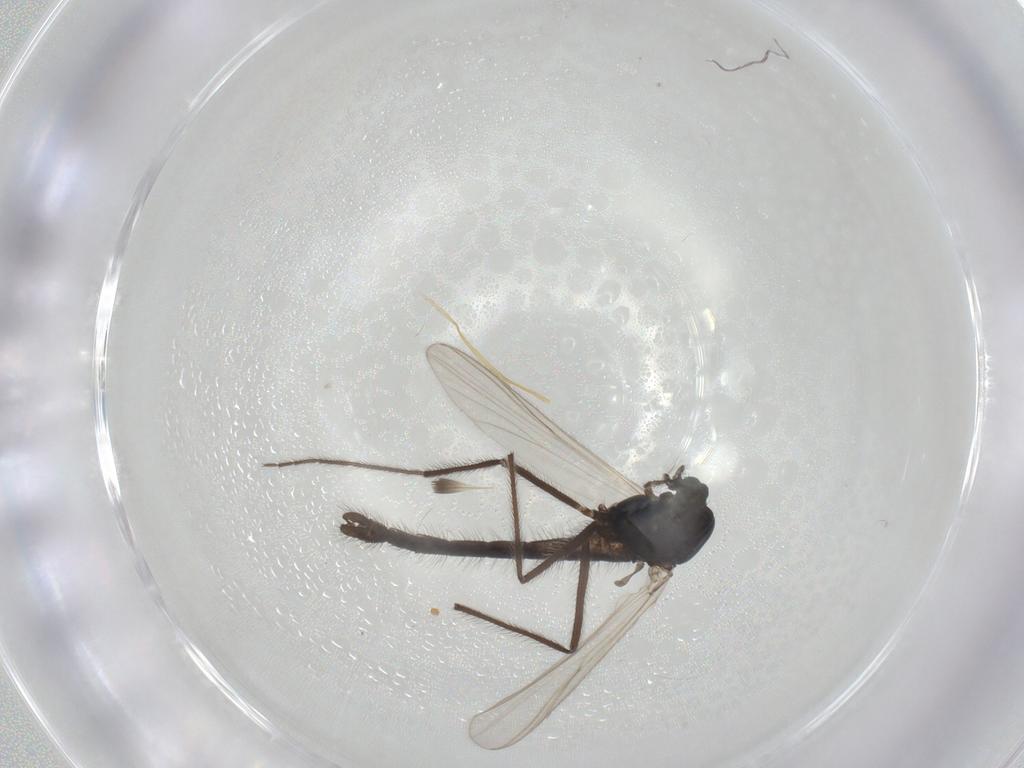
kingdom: Animalia
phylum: Arthropoda
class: Insecta
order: Diptera
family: Chironomidae
